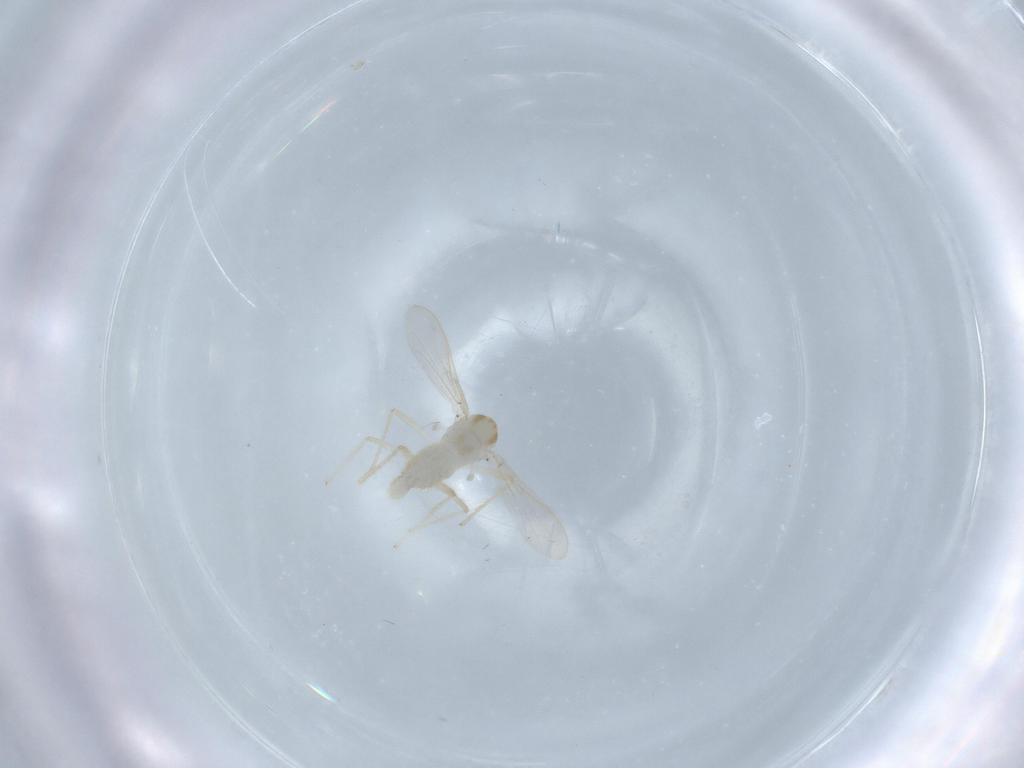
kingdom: Animalia
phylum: Arthropoda
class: Insecta
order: Diptera
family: Chironomidae
